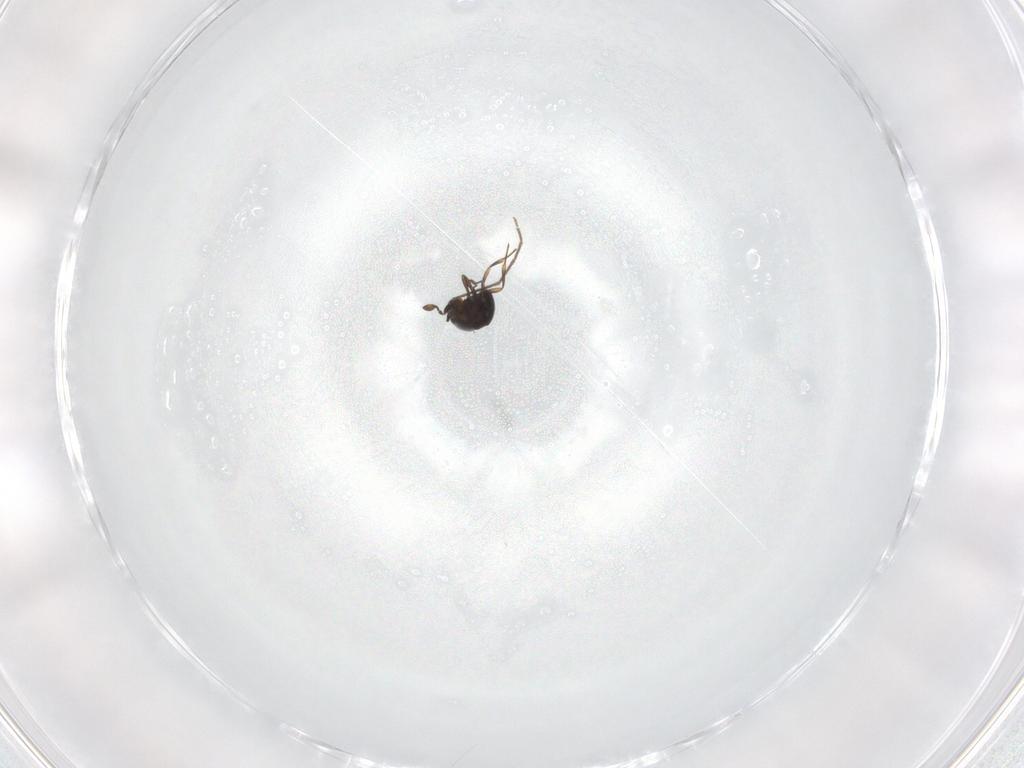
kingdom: Animalia
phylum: Arthropoda
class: Insecta
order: Hymenoptera
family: Scelionidae
